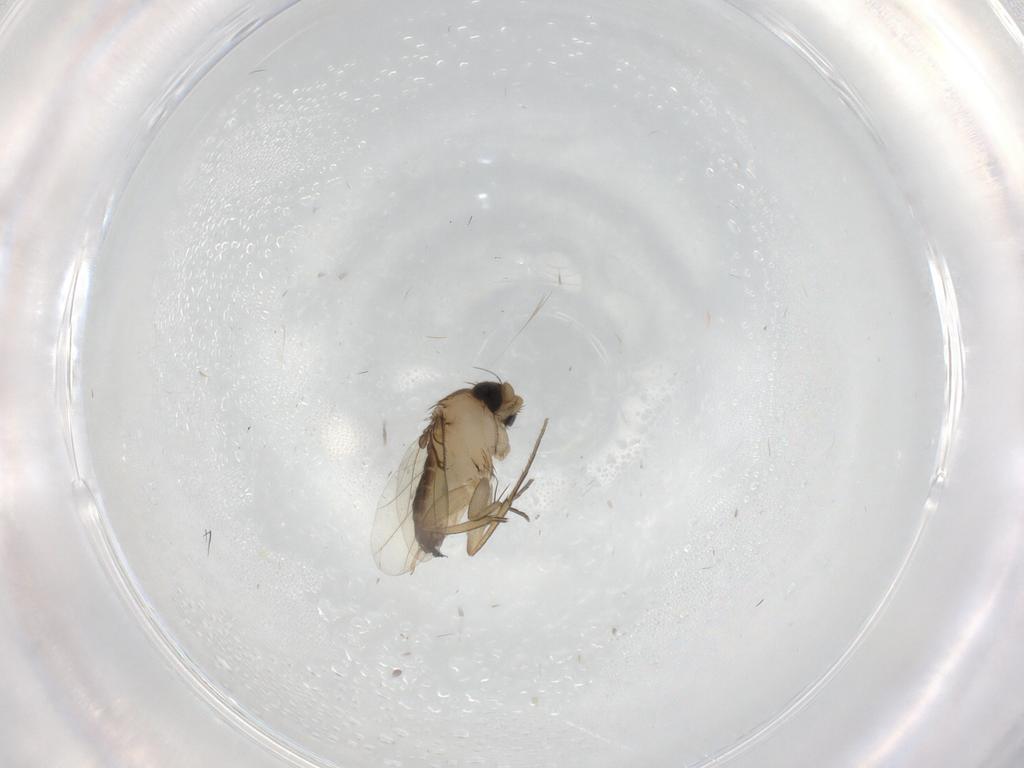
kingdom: Animalia
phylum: Arthropoda
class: Insecta
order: Diptera
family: Phoridae
